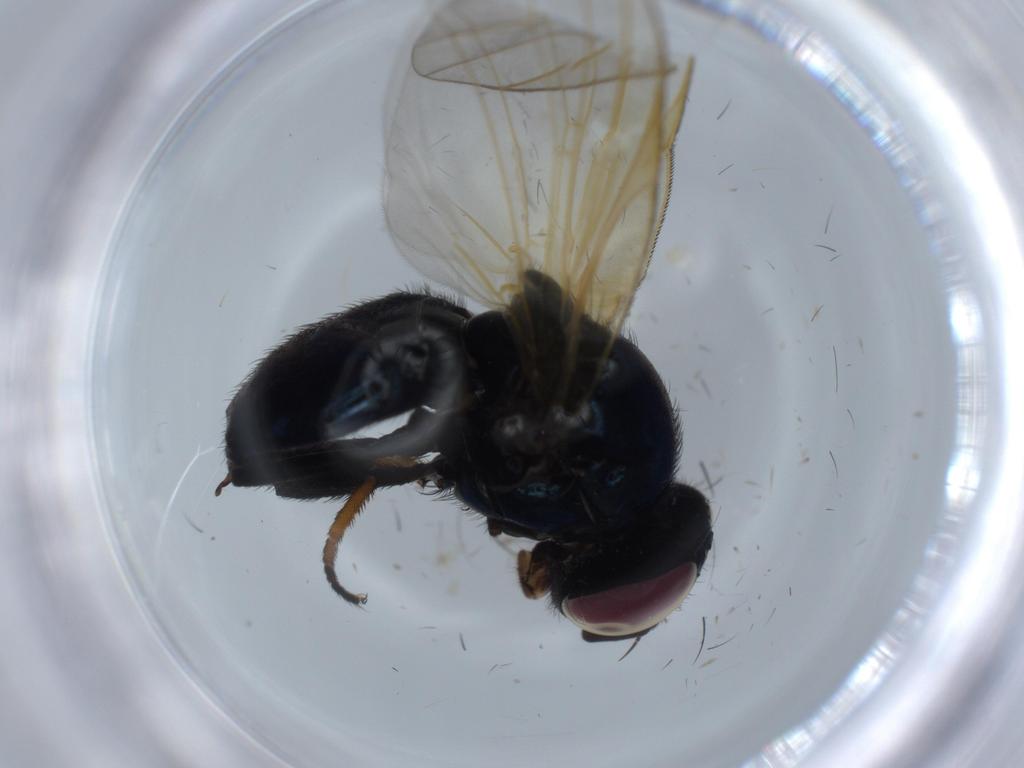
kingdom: Animalia
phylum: Arthropoda
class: Insecta
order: Diptera
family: Lonchaeidae
